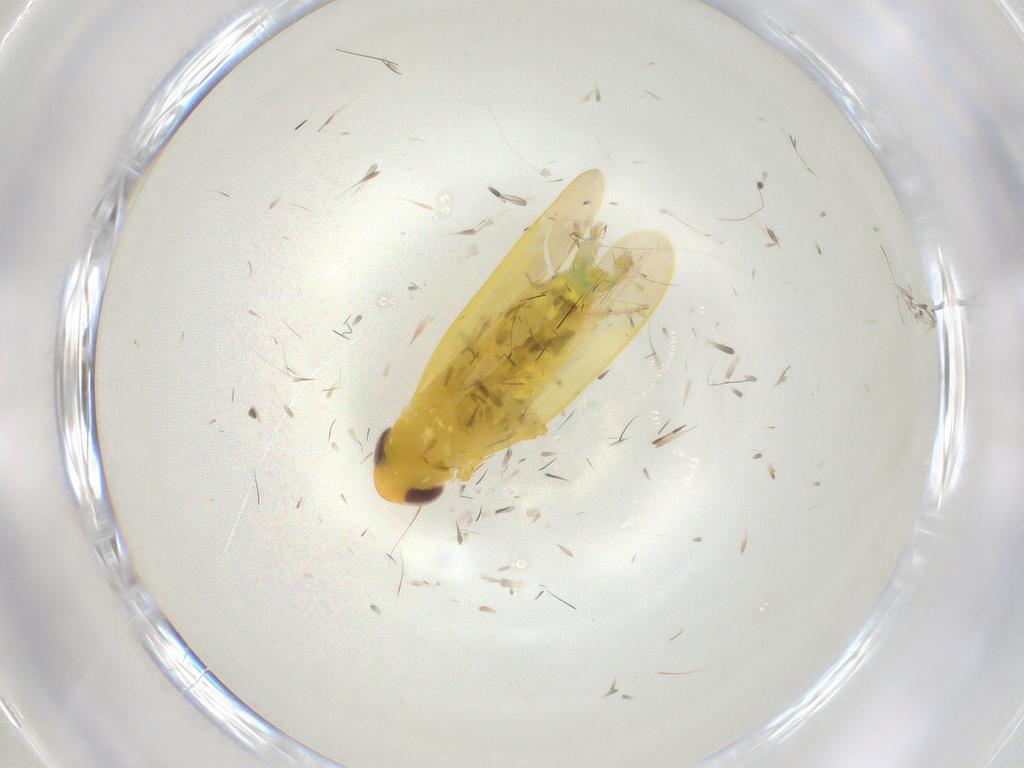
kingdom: Animalia
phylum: Arthropoda
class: Insecta
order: Hemiptera
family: Cicadellidae
